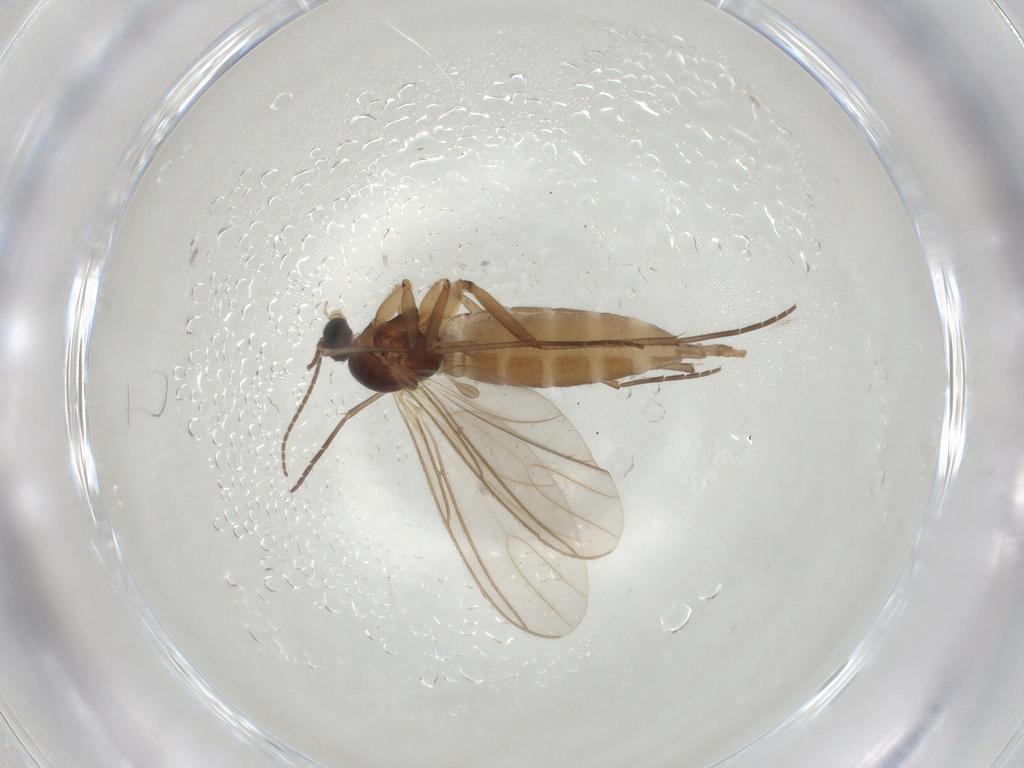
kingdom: Animalia
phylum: Arthropoda
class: Insecta
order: Diptera
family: Sciaridae
